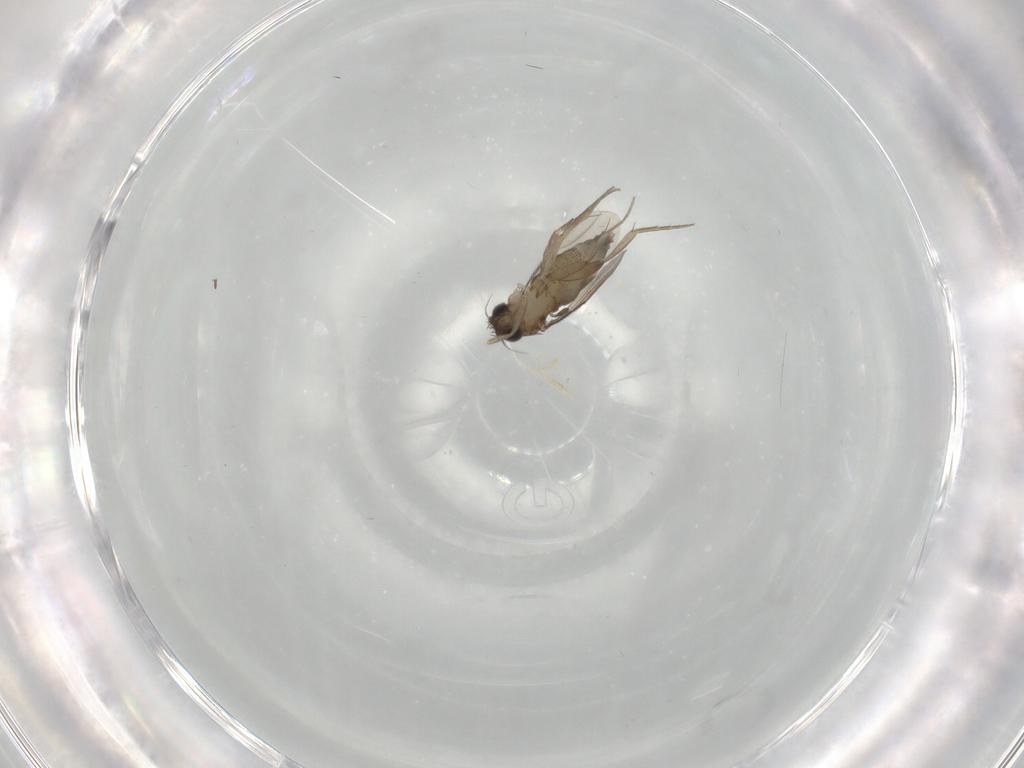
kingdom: Animalia
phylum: Arthropoda
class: Insecta
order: Diptera
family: Phoridae
